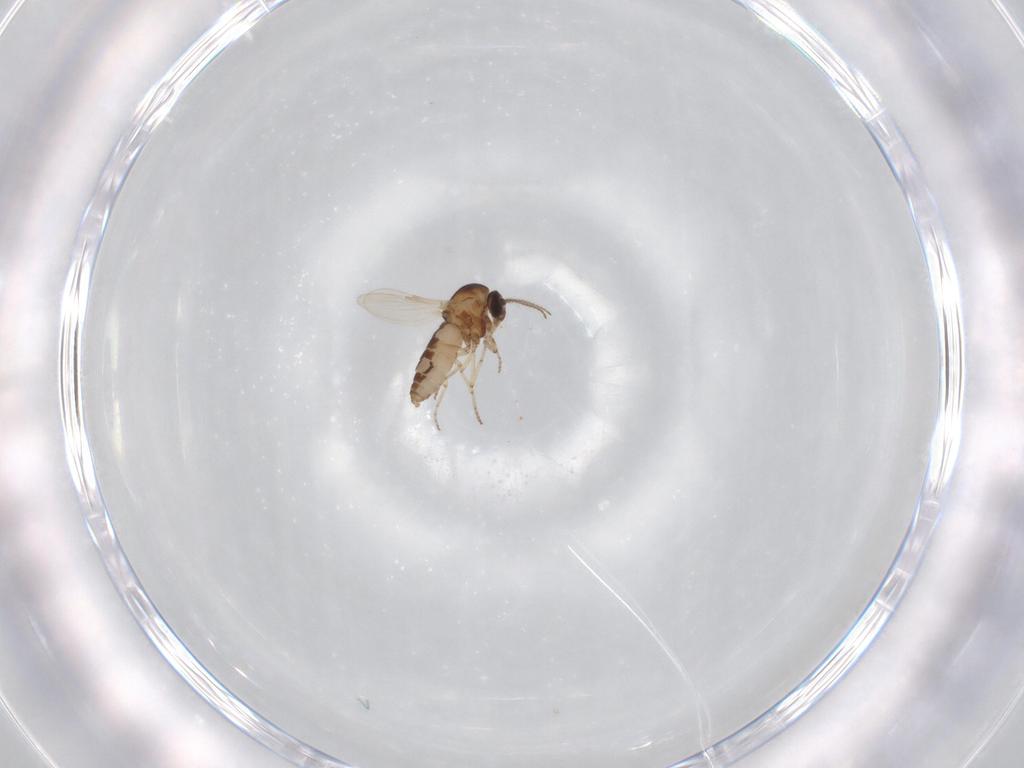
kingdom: Animalia
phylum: Arthropoda
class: Insecta
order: Diptera
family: Ceratopogonidae
